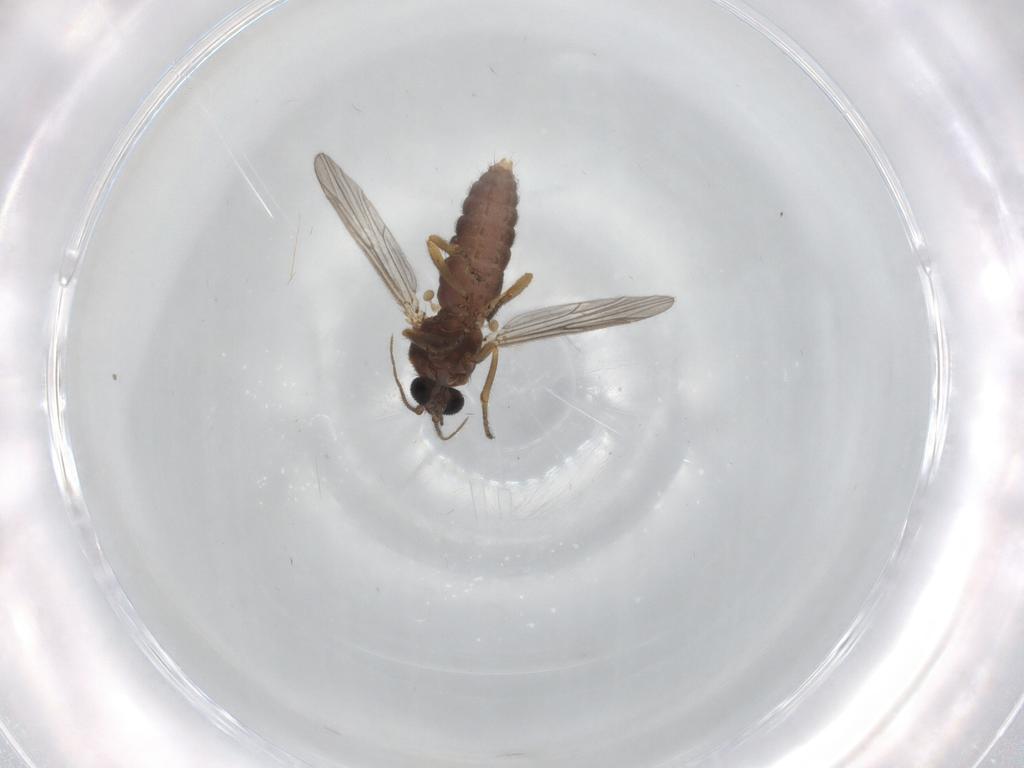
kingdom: Animalia
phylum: Arthropoda
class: Insecta
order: Diptera
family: Ceratopogonidae
